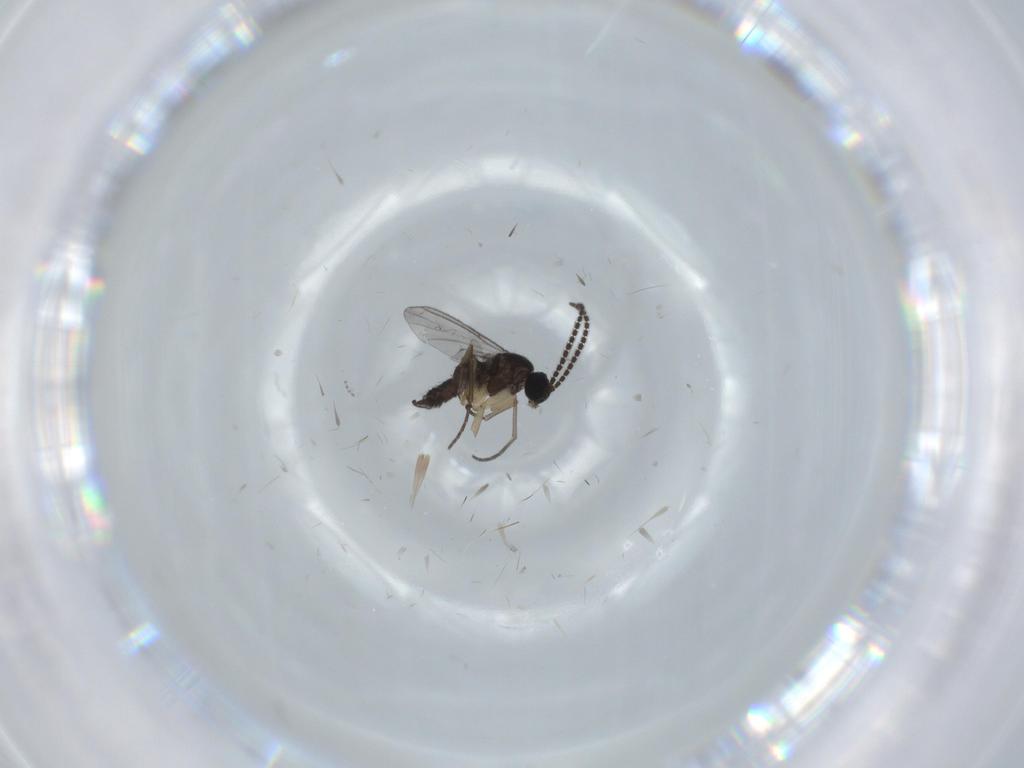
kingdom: Animalia
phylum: Arthropoda
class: Insecta
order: Diptera
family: Sciaridae
